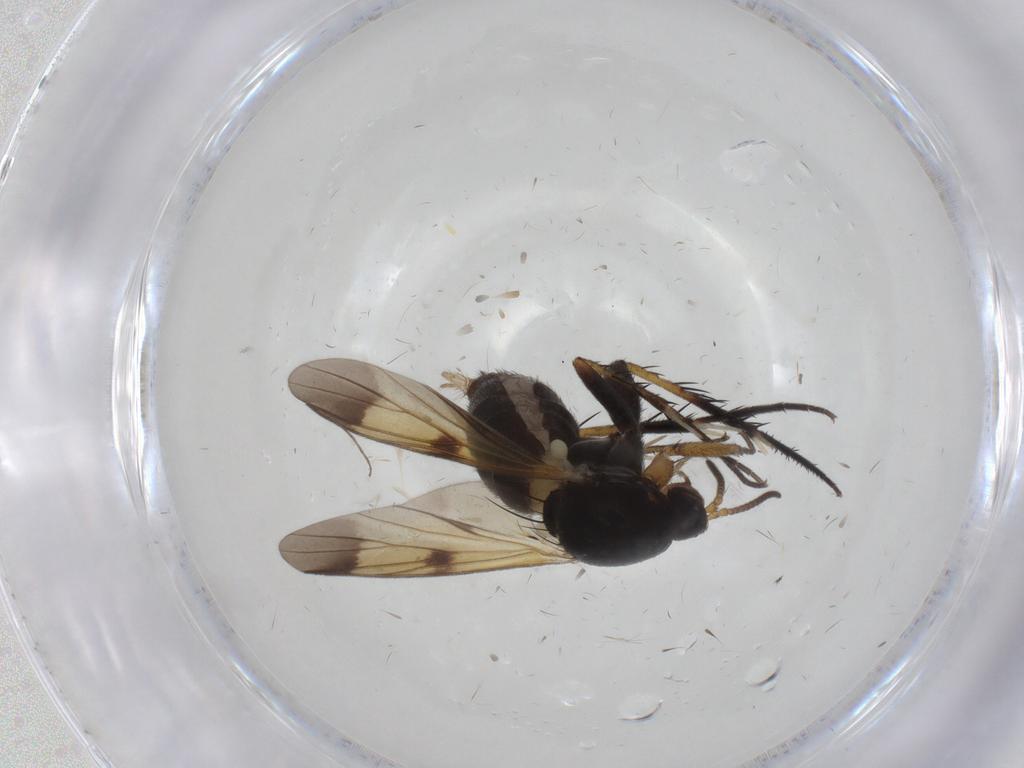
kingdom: Animalia
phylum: Arthropoda
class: Insecta
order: Diptera
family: Mycetophilidae
